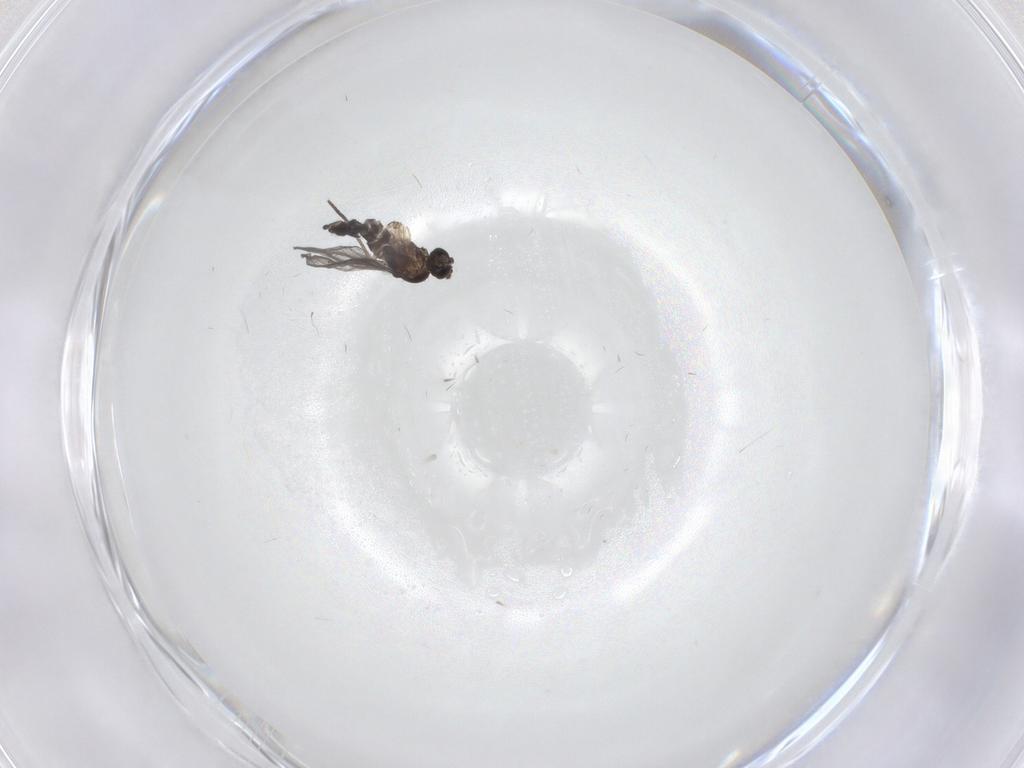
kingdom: Animalia
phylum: Arthropoda
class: Insecta
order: Diptera
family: Sciaridae
